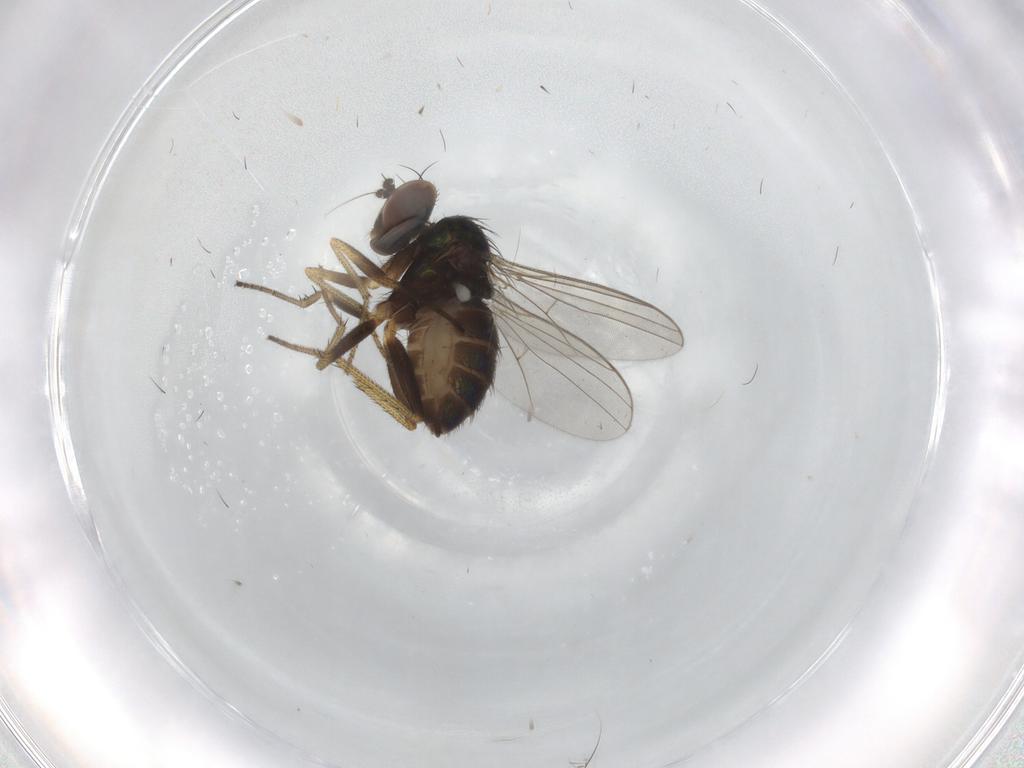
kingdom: Animalia
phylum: Arthropoda
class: Insecta
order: Diptera
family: Dolichopodidae
